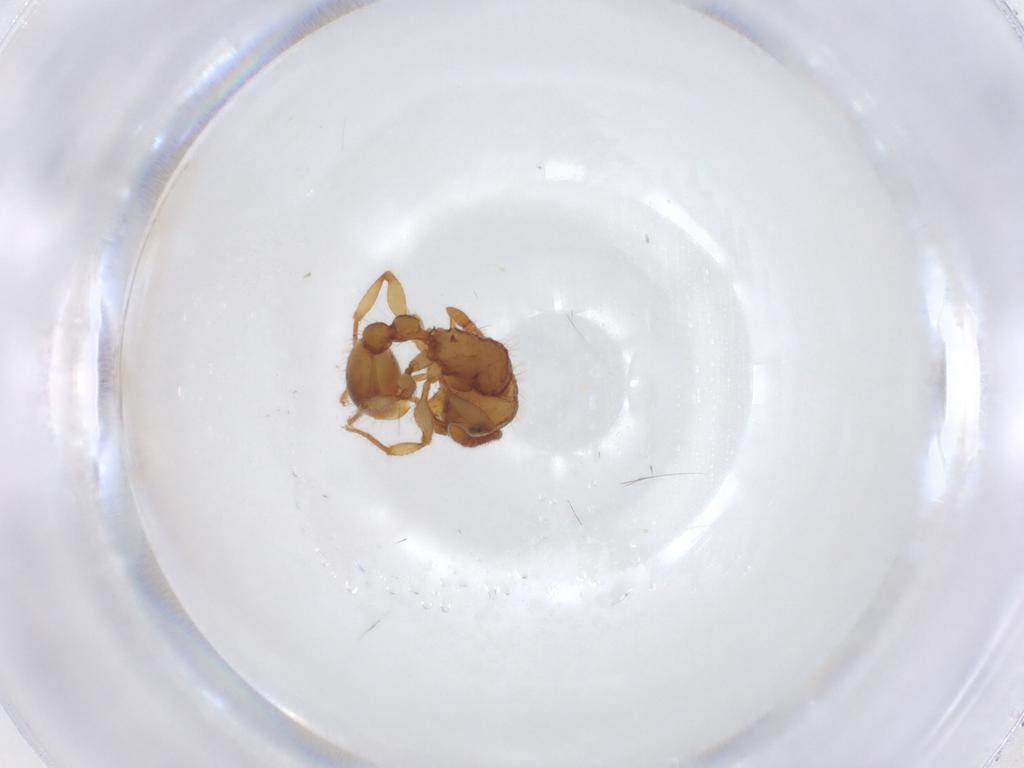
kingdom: Animalia
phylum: Arthropoda
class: Insecta
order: Hymenoptera
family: Formicidae
